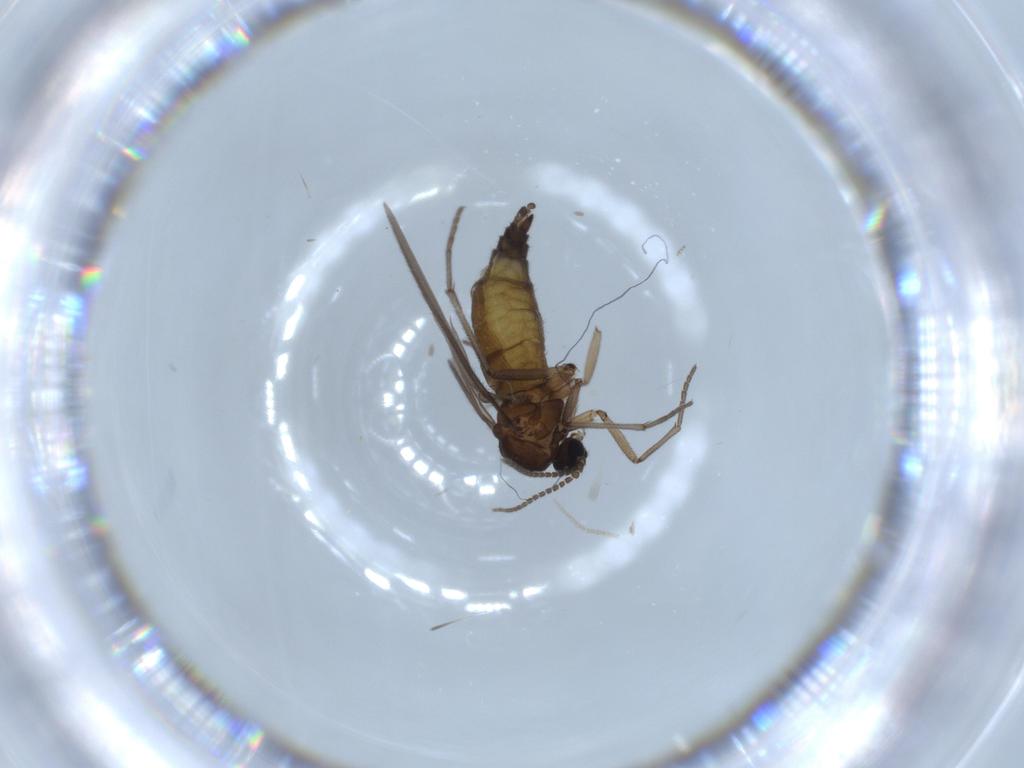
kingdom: Animalia
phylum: Arthropoda
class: Insecta
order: Diptera
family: Sciaridae
